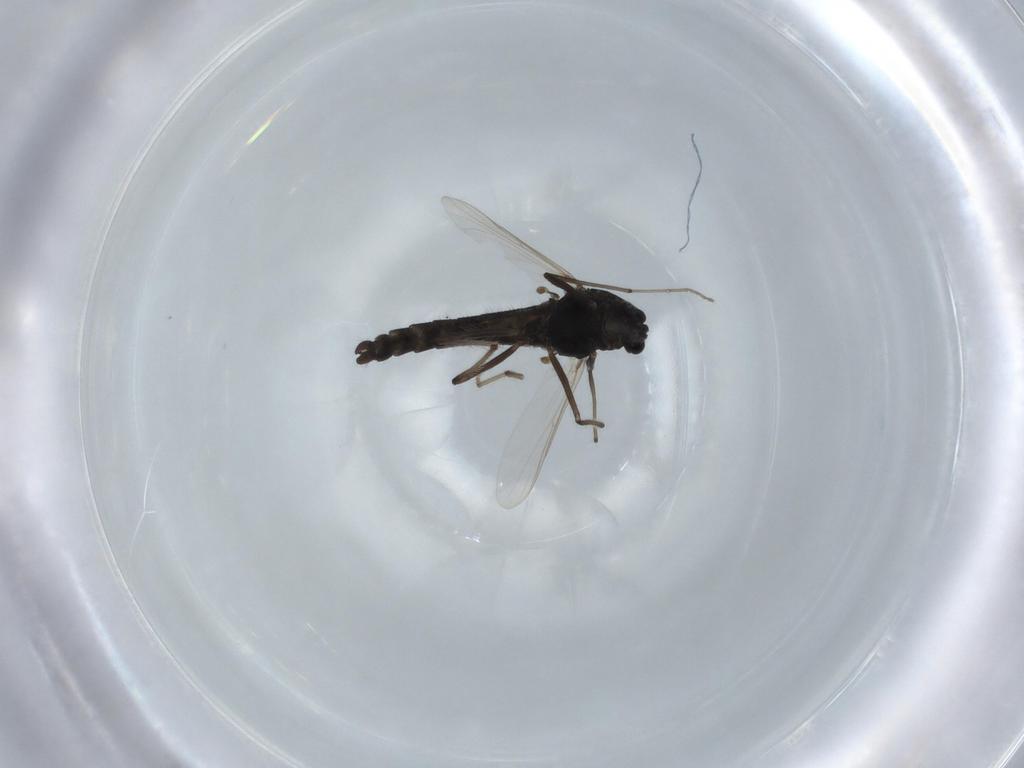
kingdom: Animalia
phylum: Arthropoda
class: Insecta
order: Diptera
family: Chironomidae
